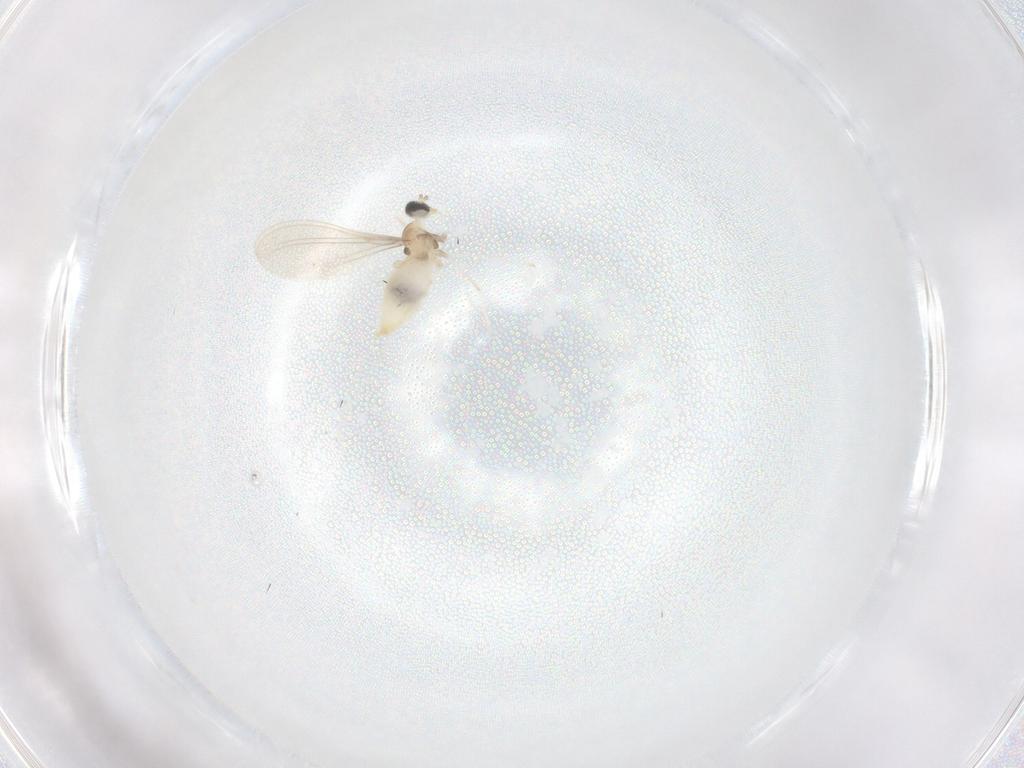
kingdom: Animalia
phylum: Arthropoda
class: Insecta
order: Diptera
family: Cecidomyiidae
